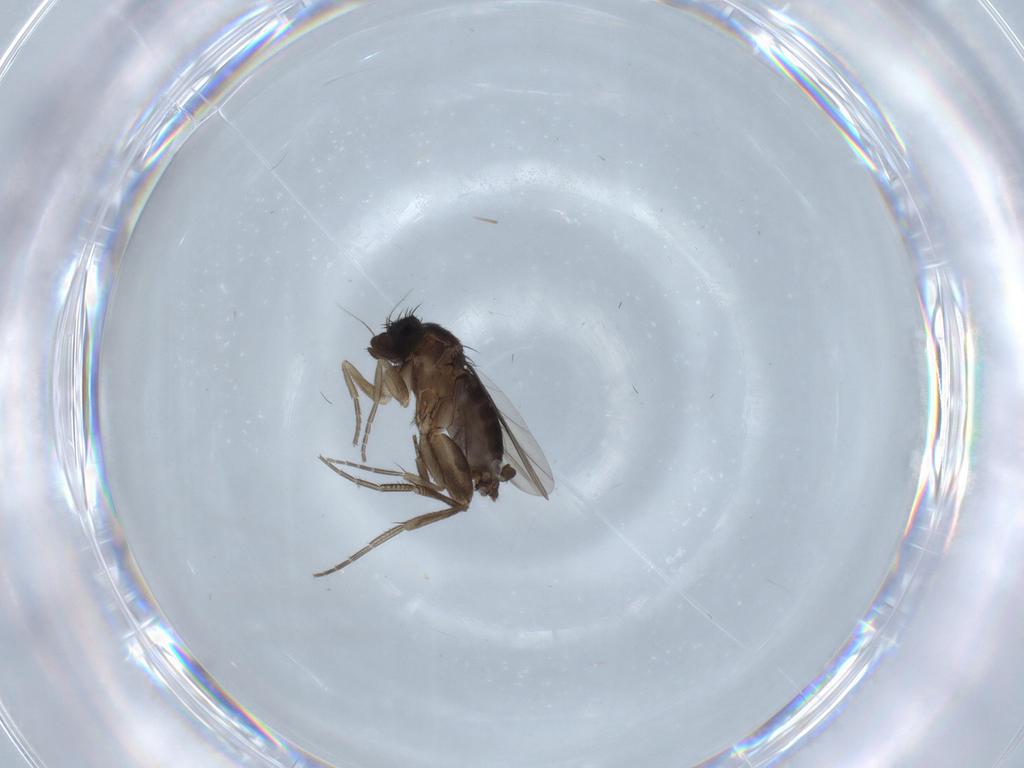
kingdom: Animalia
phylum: Arthropoda
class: Insecta
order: Diptera
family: Phoridae
